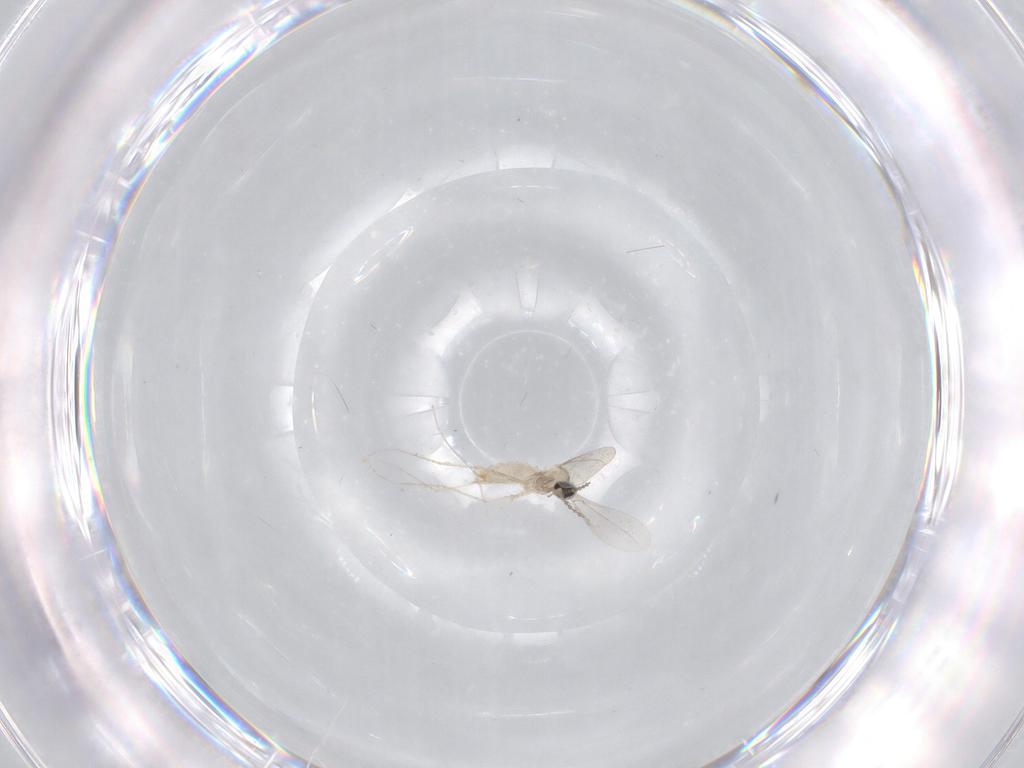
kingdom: Animalia
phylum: Arthropoda
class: Insecta
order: Diptera
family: Cecidomyiidae
